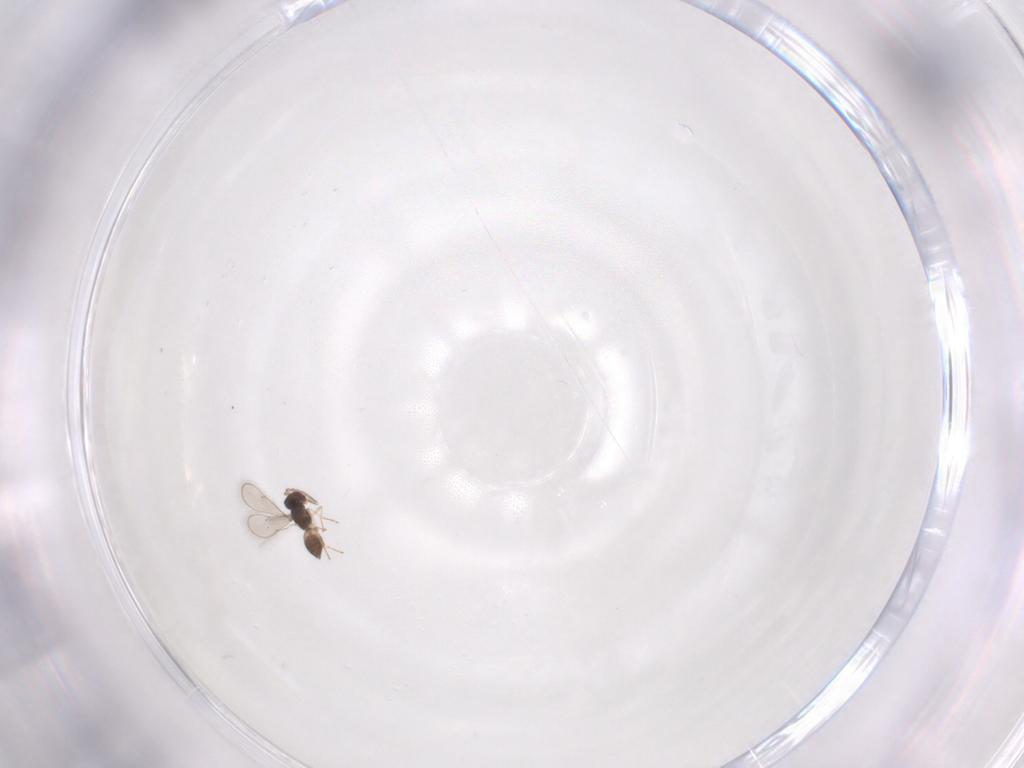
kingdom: Animalia
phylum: Arthropoda
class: Insecta
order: Hymenoptera
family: Eulophidae
